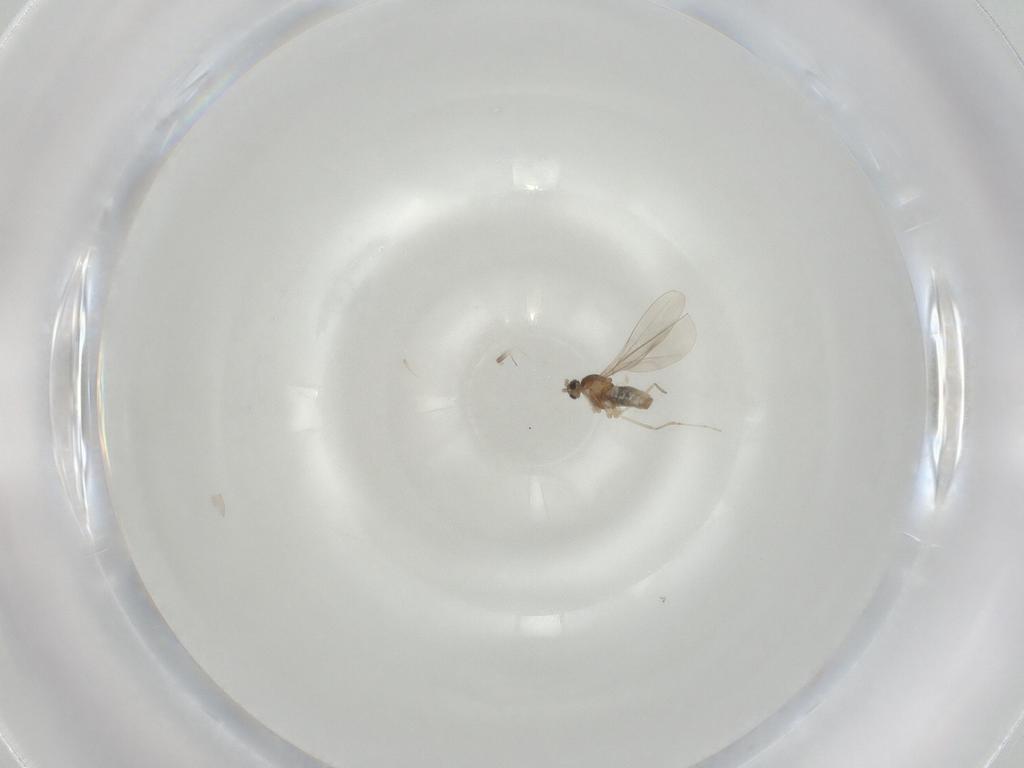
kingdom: Animalia
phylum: Arthropoda
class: Insecta
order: Diptera
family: Cecidomyiidae
